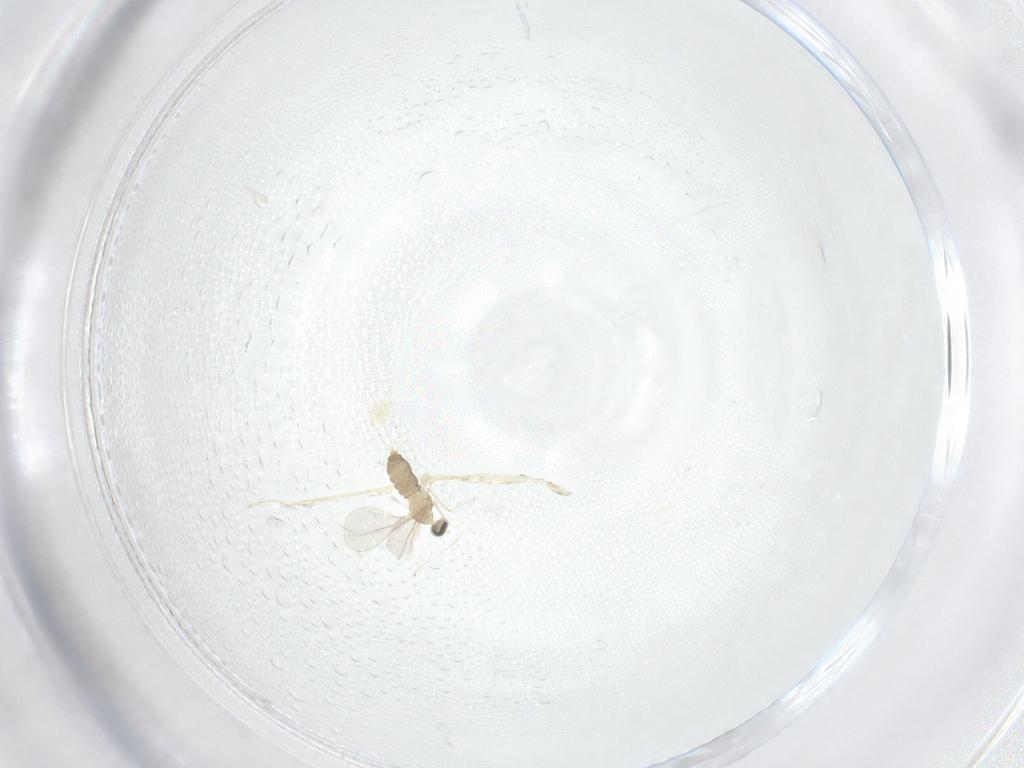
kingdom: Animalia
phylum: Arthropoda
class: Insecta
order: Diptera
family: Cecidomyiidae
